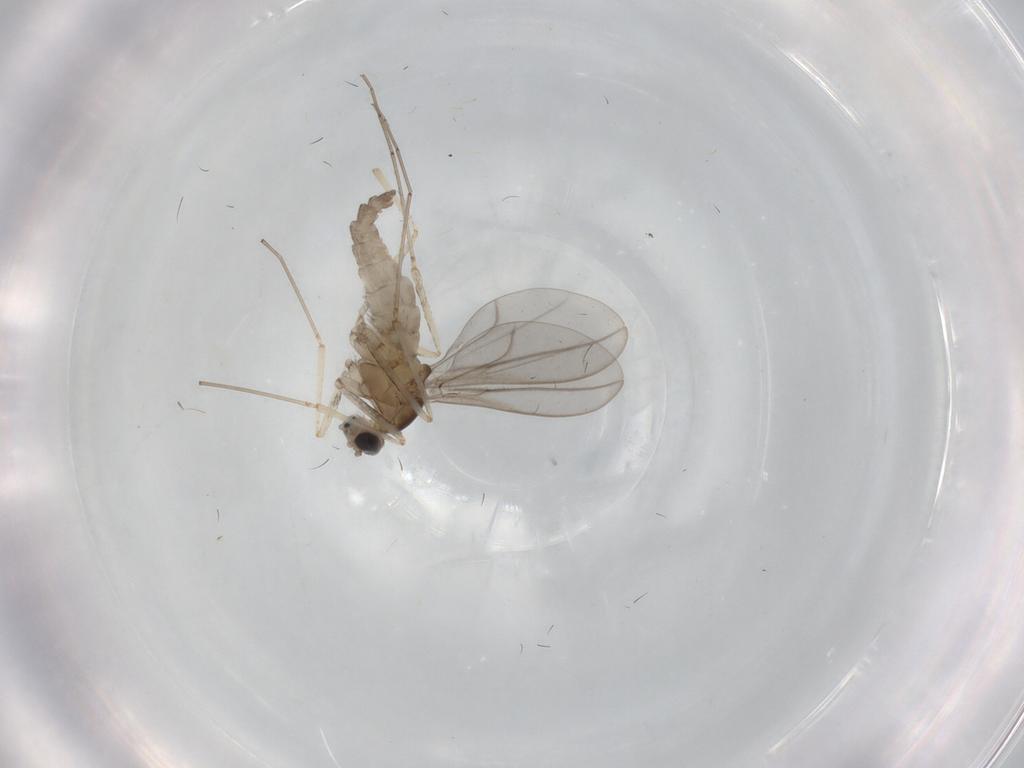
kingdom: Animalia
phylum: Arthropoda
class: Insecta
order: Diptera
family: Cecidomyiidae
